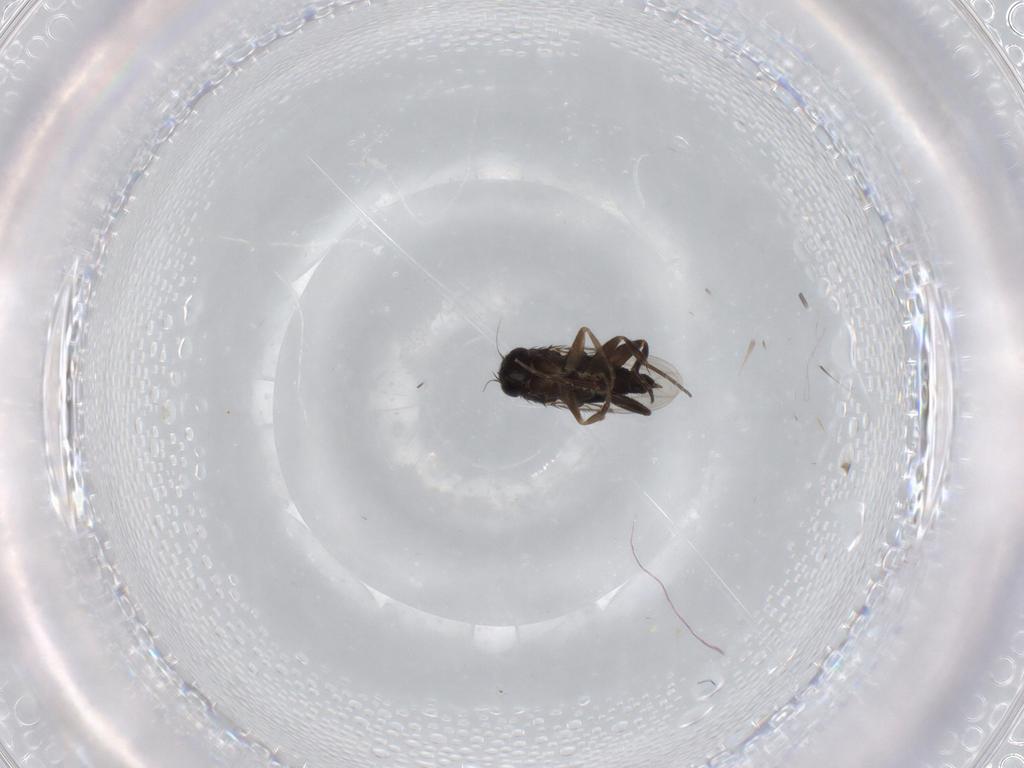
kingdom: Animalia
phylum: Arthropoda
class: Insecta
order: Diptera
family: Phoridae
